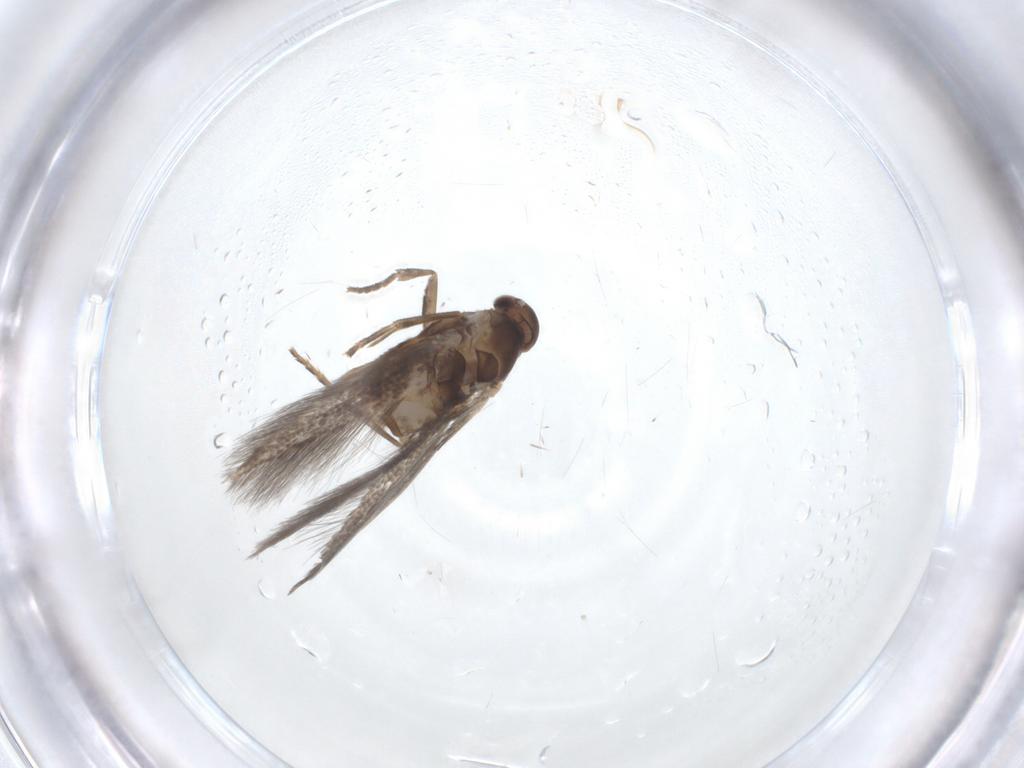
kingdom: Animalia
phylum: Arthropoda
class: Insecta
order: Lepidoptera
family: Elachistidae
